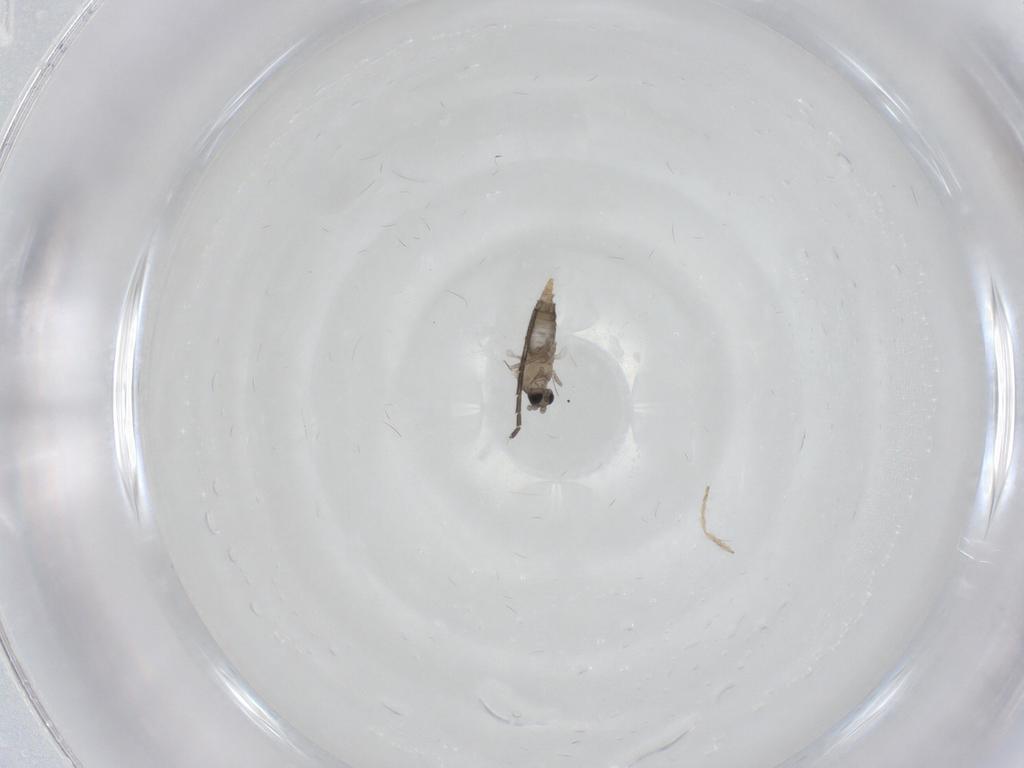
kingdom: Animalia
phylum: Arthropoda
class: Insecta
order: Diptera
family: Cecidomyiidae
